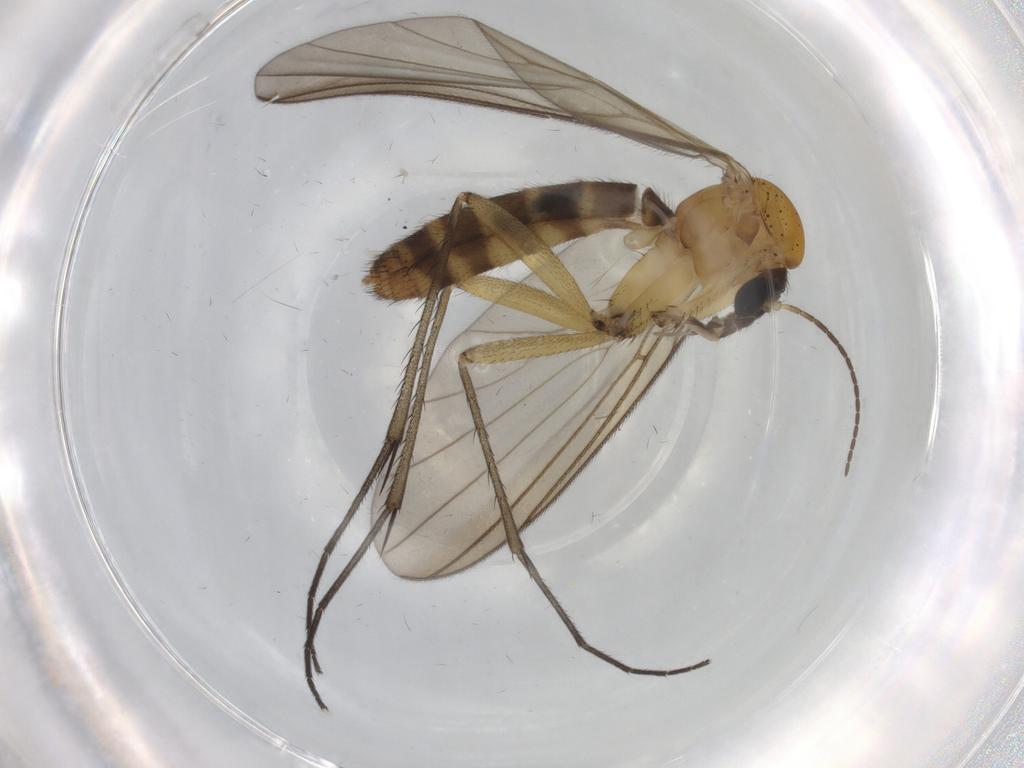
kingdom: Animalia
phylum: Arthropoda
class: Insecta
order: Diptera
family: Mycetophilidae
